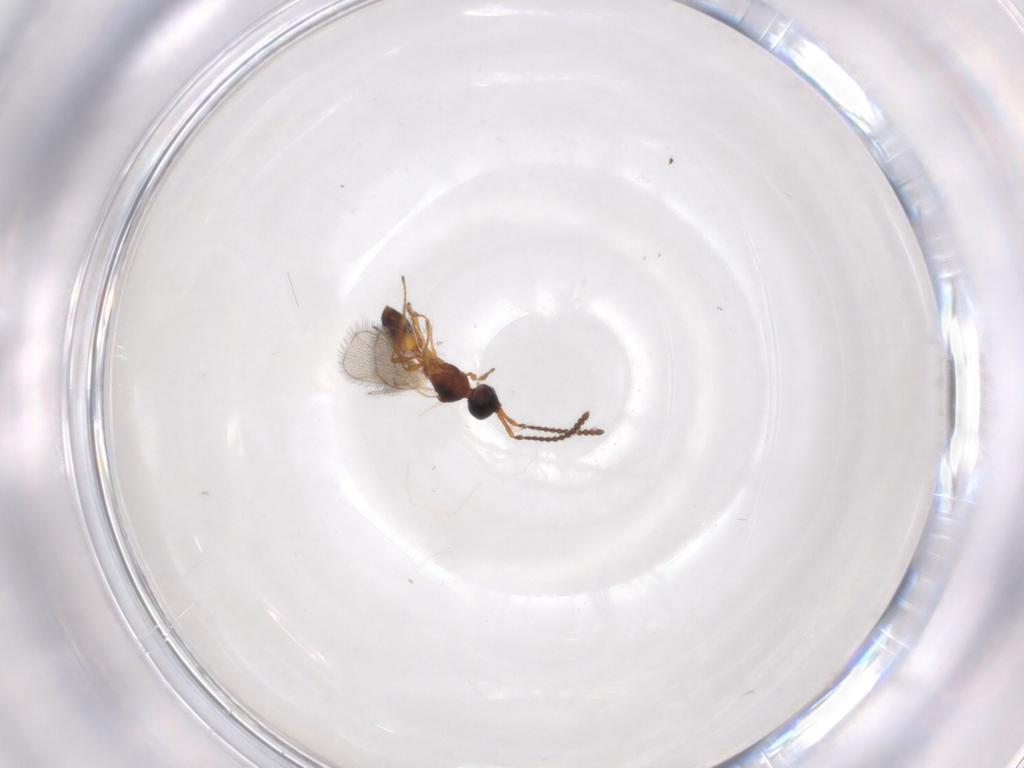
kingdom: Animalia
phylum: Arthropoda
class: Insecta
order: Hymenoptera
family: Diapriidae
